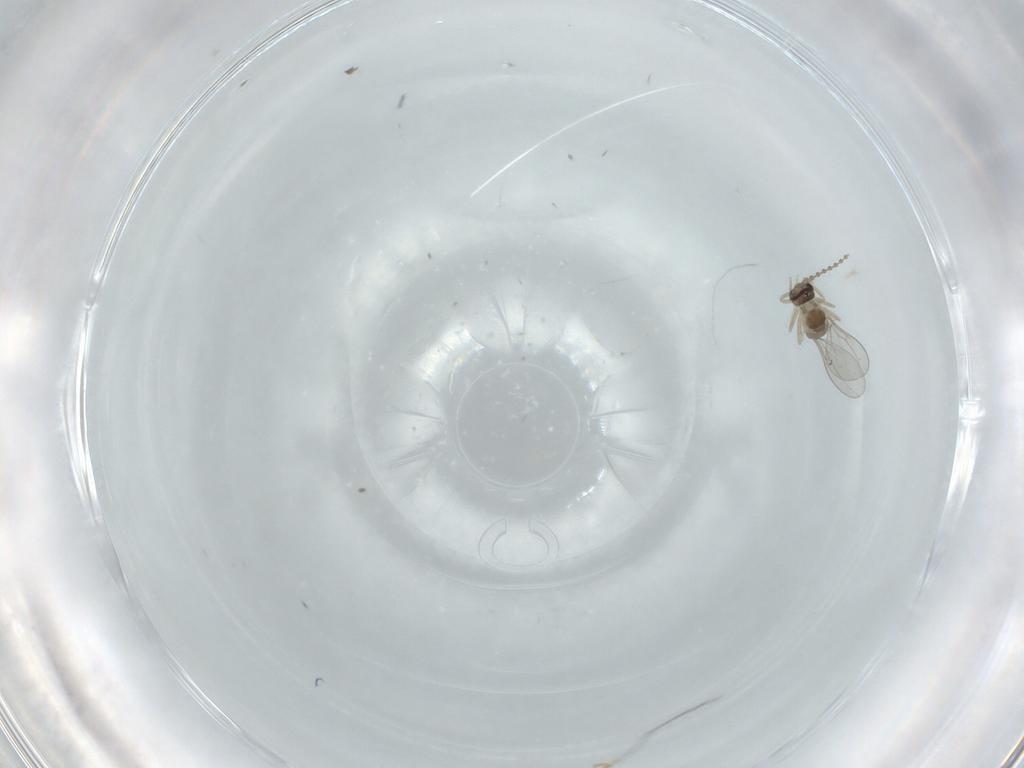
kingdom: Animalia
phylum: Arthropoda
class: Insecta
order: Diptera
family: Cecidomyiidae
